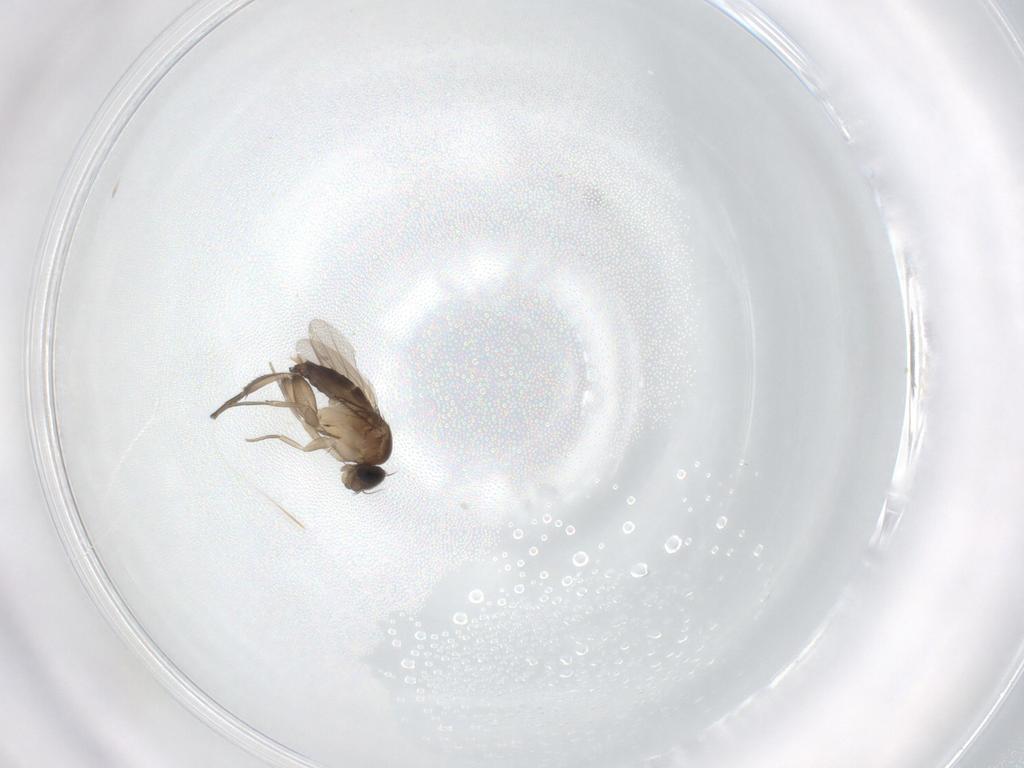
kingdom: Animalia
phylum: Arthropoda
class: Insecta
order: Diptera
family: Phoridae
